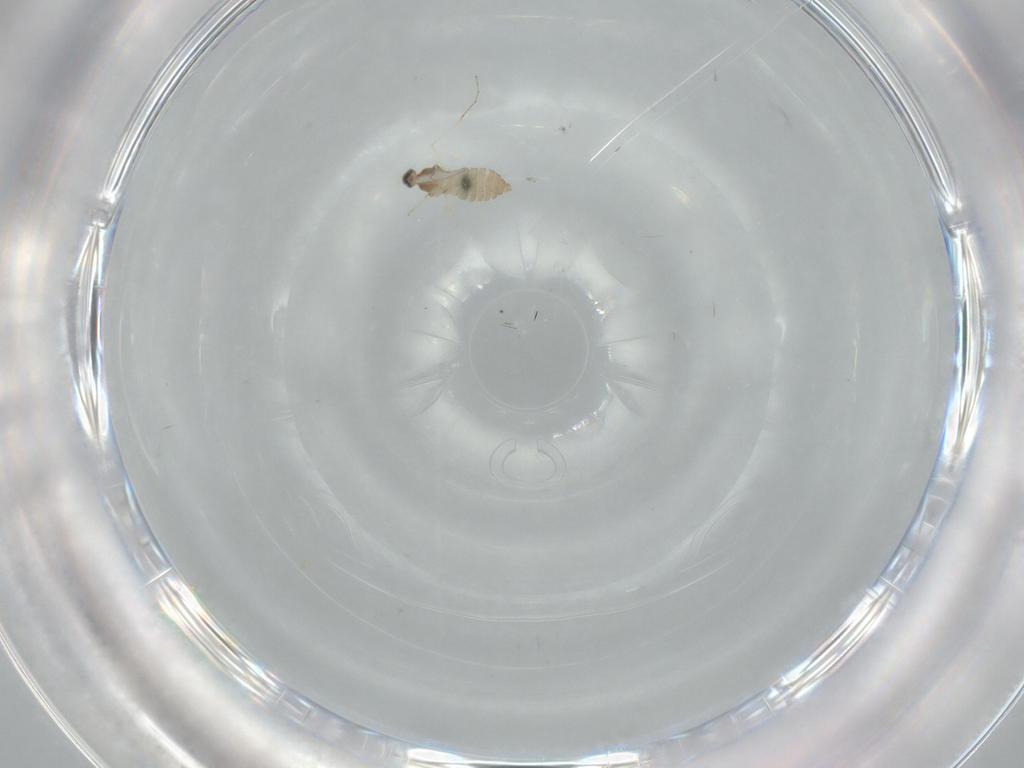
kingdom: Animalia
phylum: Arthropoda
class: Insecta
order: Diptera
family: Cecidomyiidae
